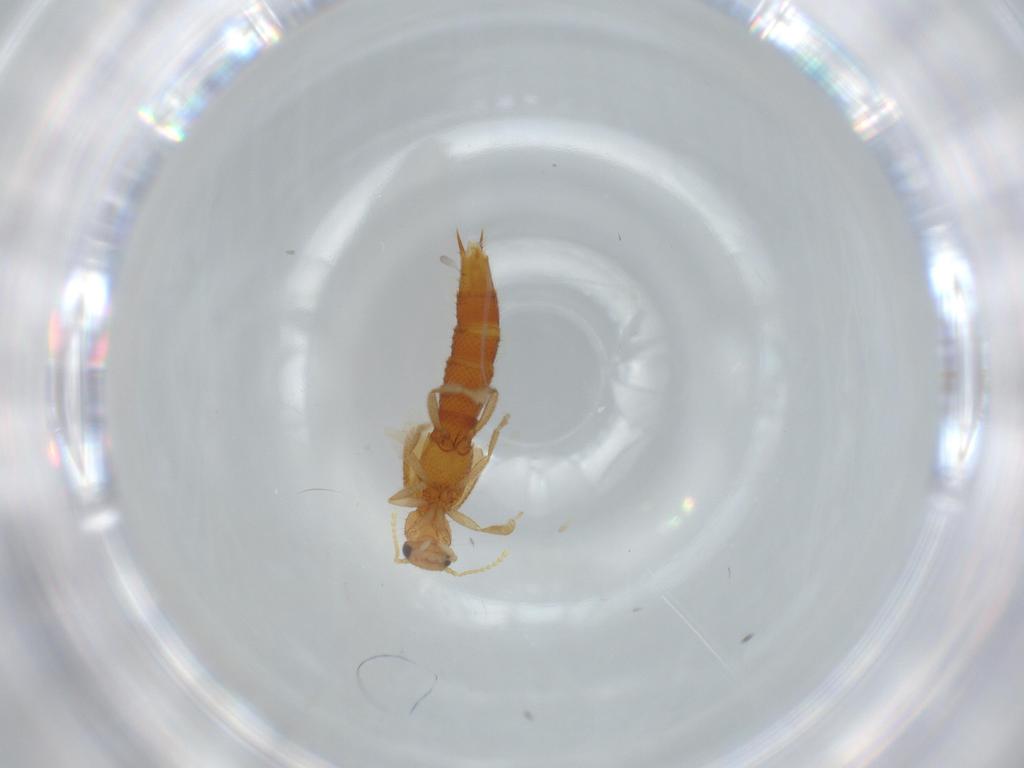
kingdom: Animalia
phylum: Arthropoda
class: Insecta
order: Coleoptera
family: Staphylinidae
